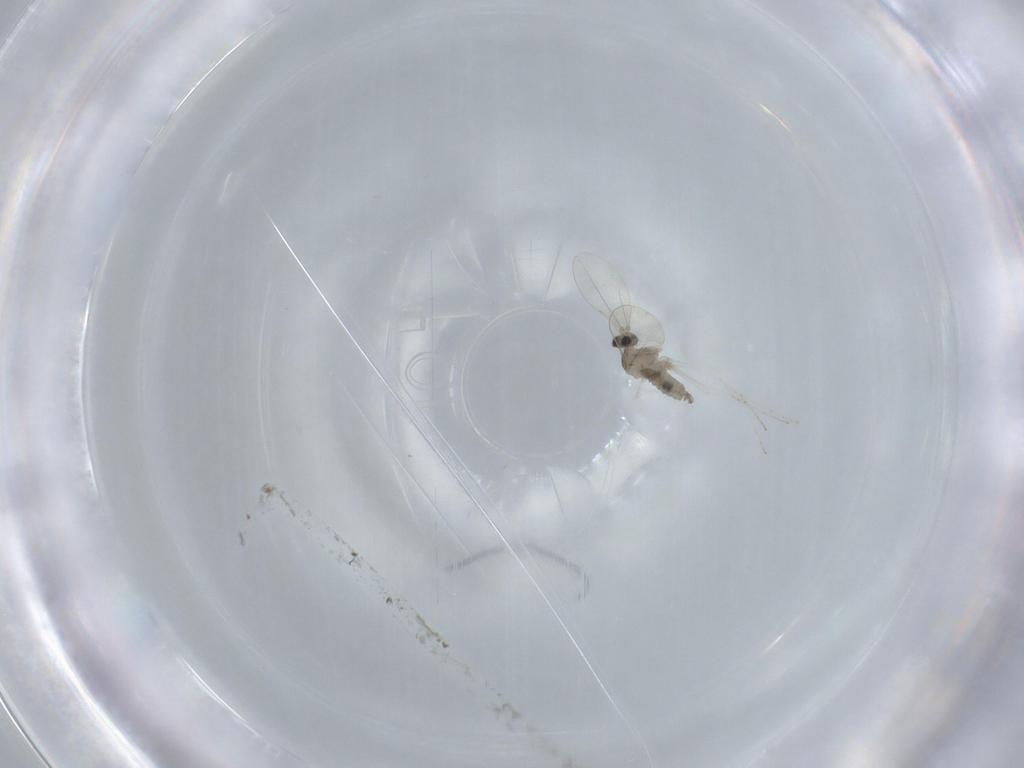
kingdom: Animalia
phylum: Arthropoda
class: Insecta
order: Diptera
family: Cecidomyiidae
